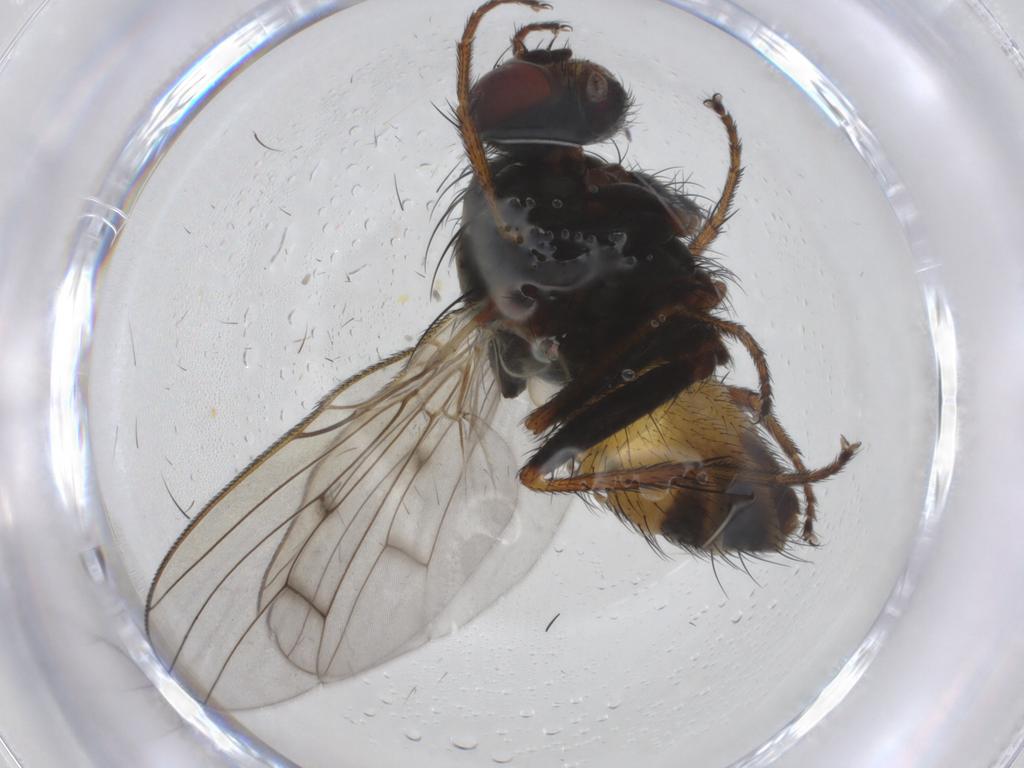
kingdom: Animalia
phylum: Arthropoda
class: Insecta
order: Diptera
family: Muscidae
